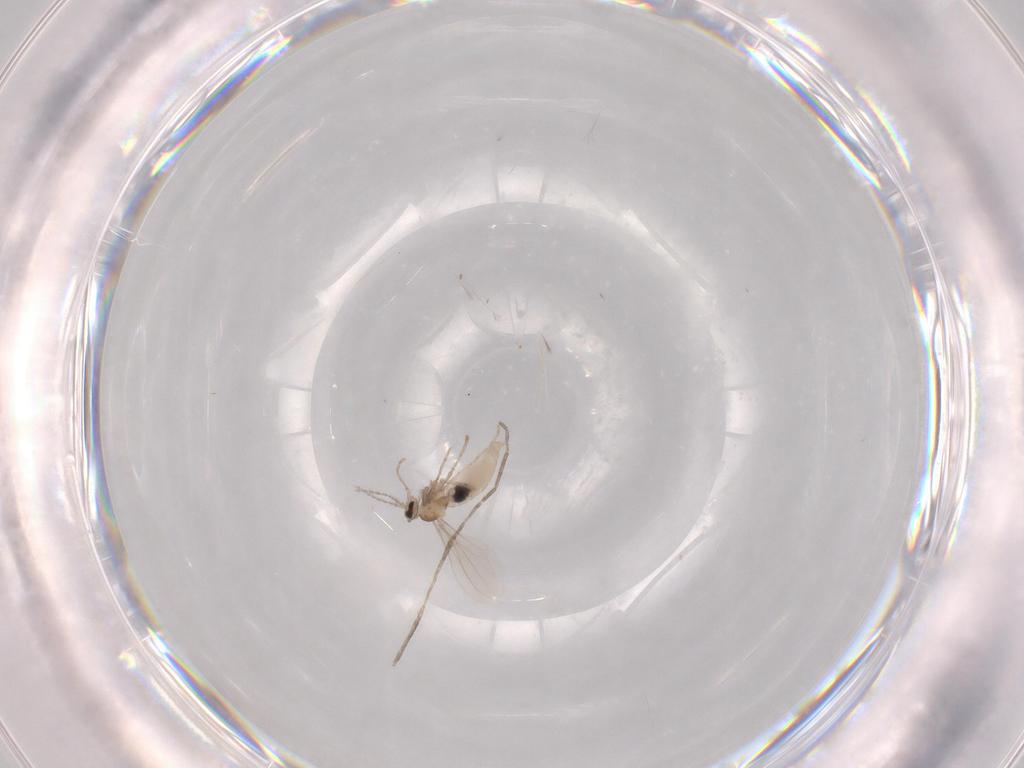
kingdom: Animalia
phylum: Arthropoda
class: Insecta
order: Diptera
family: Cecidomyiidae
